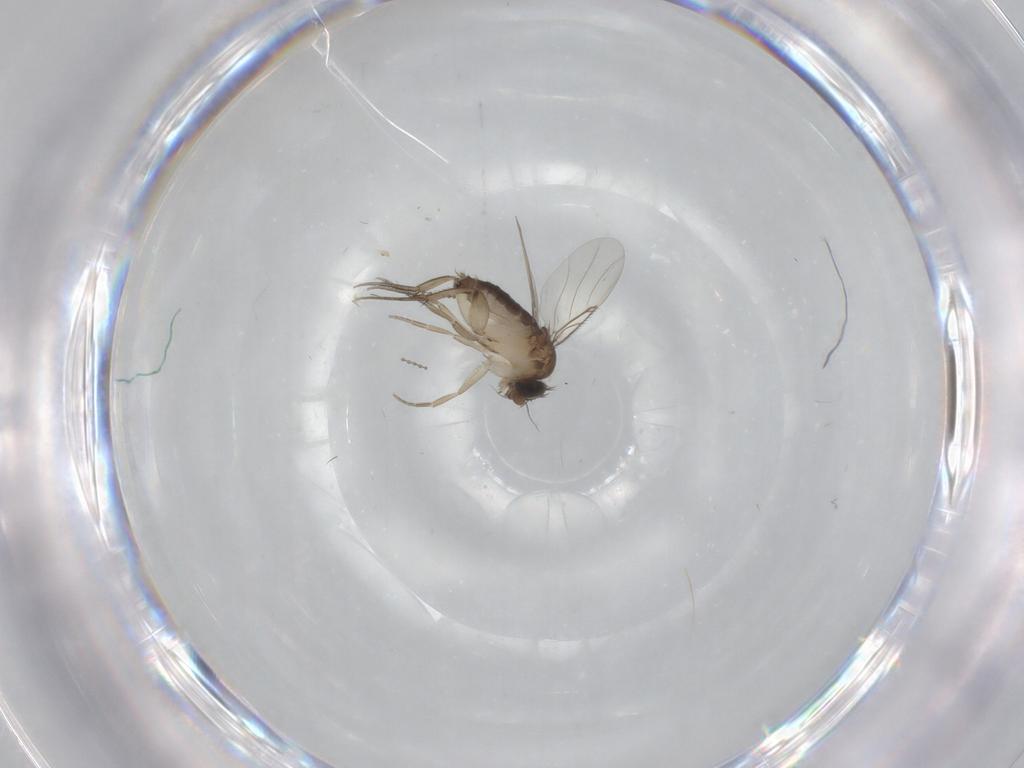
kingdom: Animalia
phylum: Arthropoda
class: Insecta
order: Diptera
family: Chironomidae
